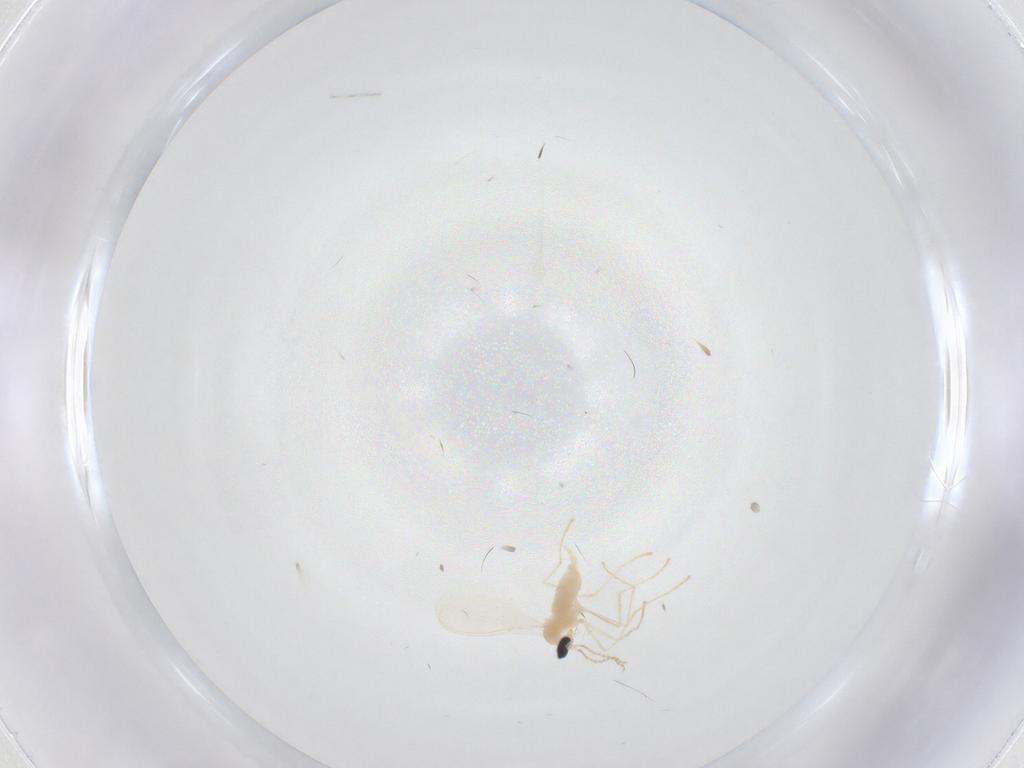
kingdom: Animalia
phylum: Arthropoda
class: Insecta
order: Diptera
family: Cecidomyiidae
